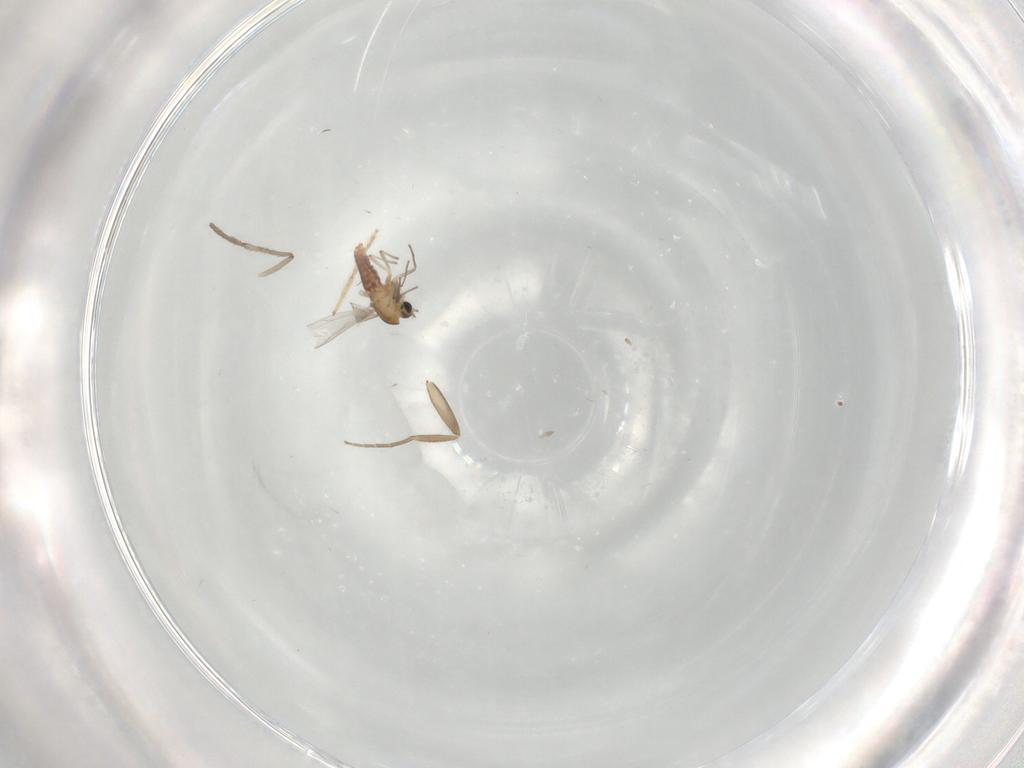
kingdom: Animalia
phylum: Arthropoda
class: Insecta
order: Diptera
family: Chironomidae
